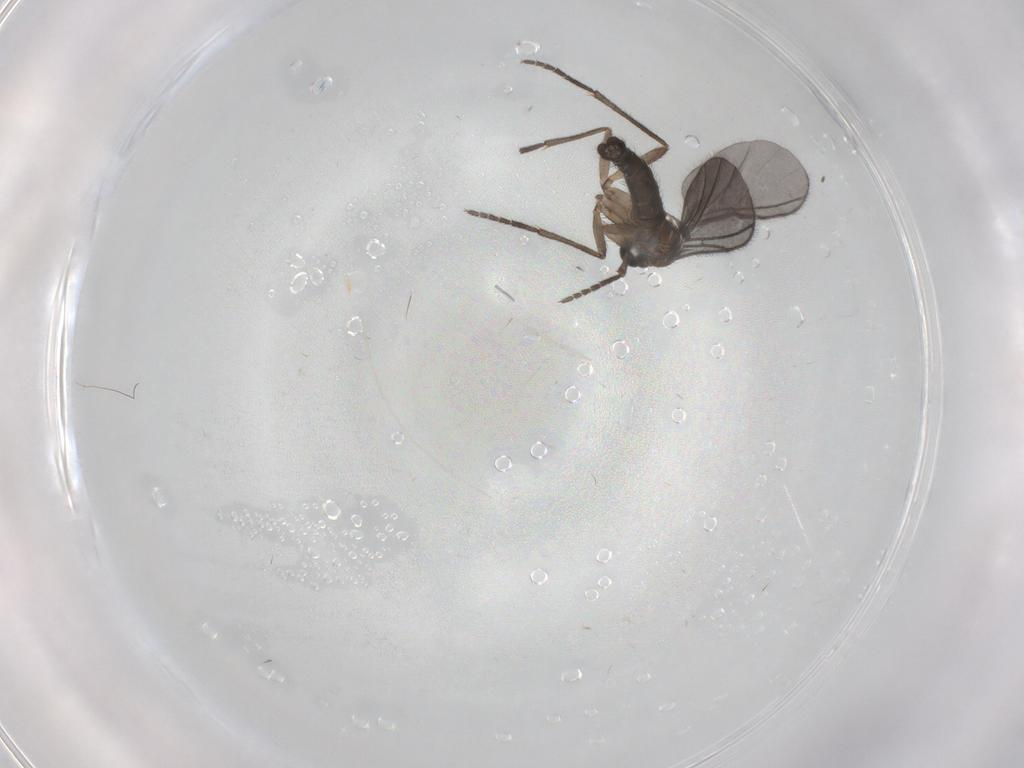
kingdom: Animalia
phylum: Arthropoda
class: Insecta
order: Diptera
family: Sciaridae
